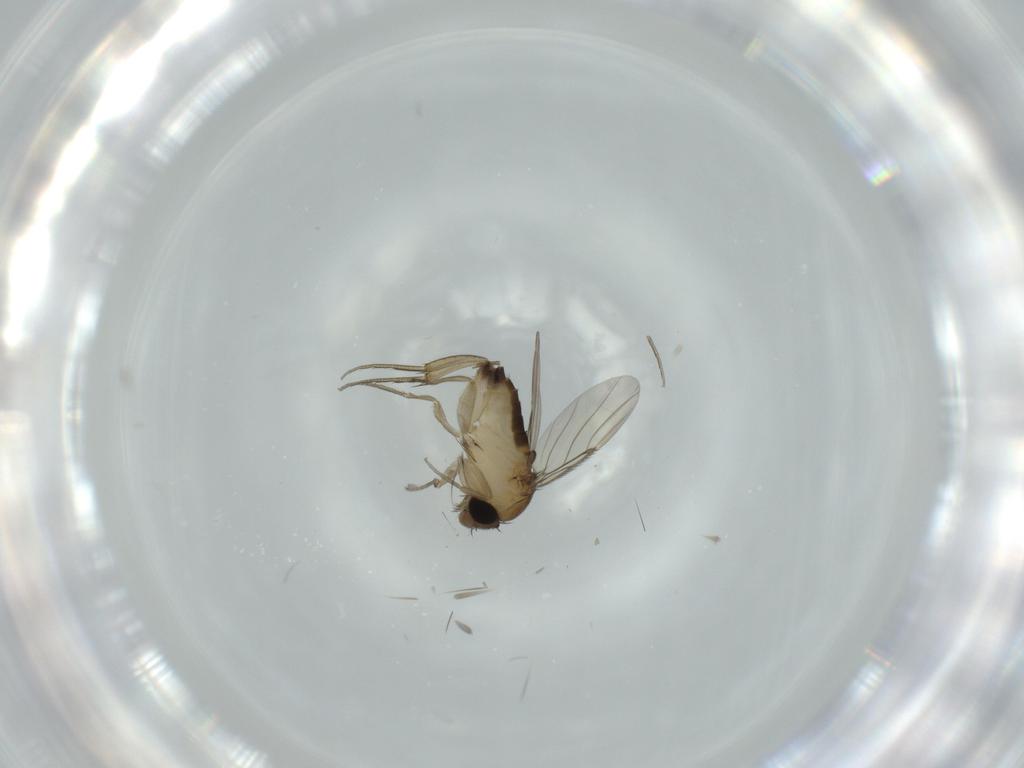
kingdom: Animalia
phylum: Arthropoda
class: Insecta
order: Diptera
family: Phoridae
